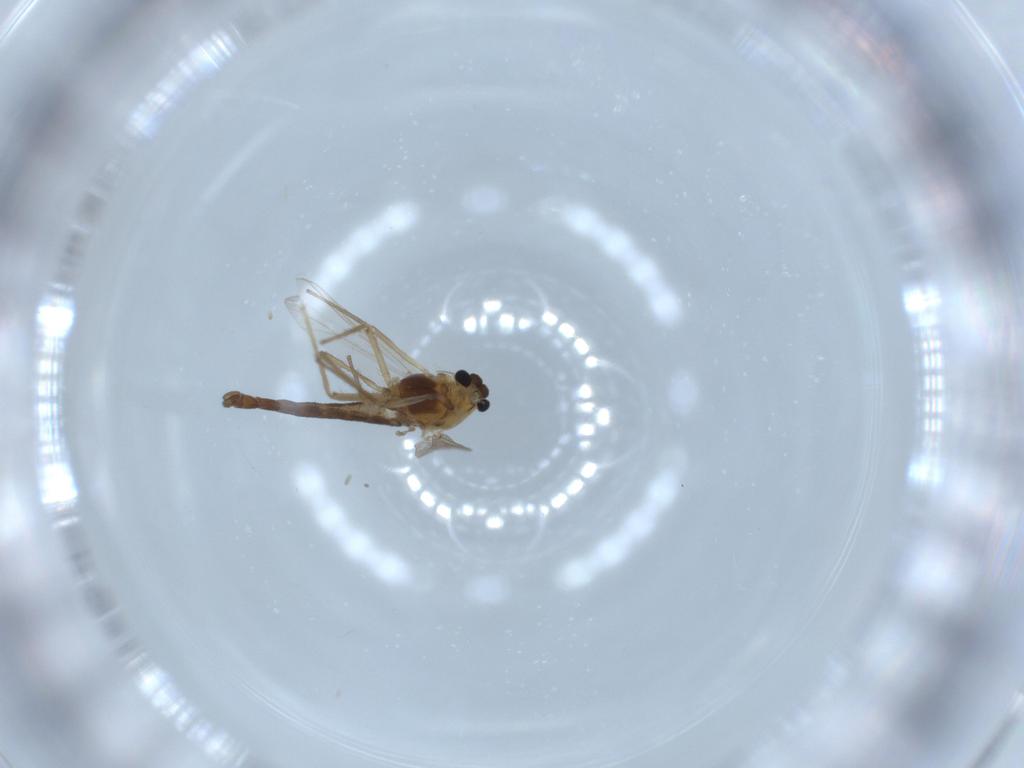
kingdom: Animalia
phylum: Arthropoda
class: Insecta
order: Diptera
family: Chironomidae
